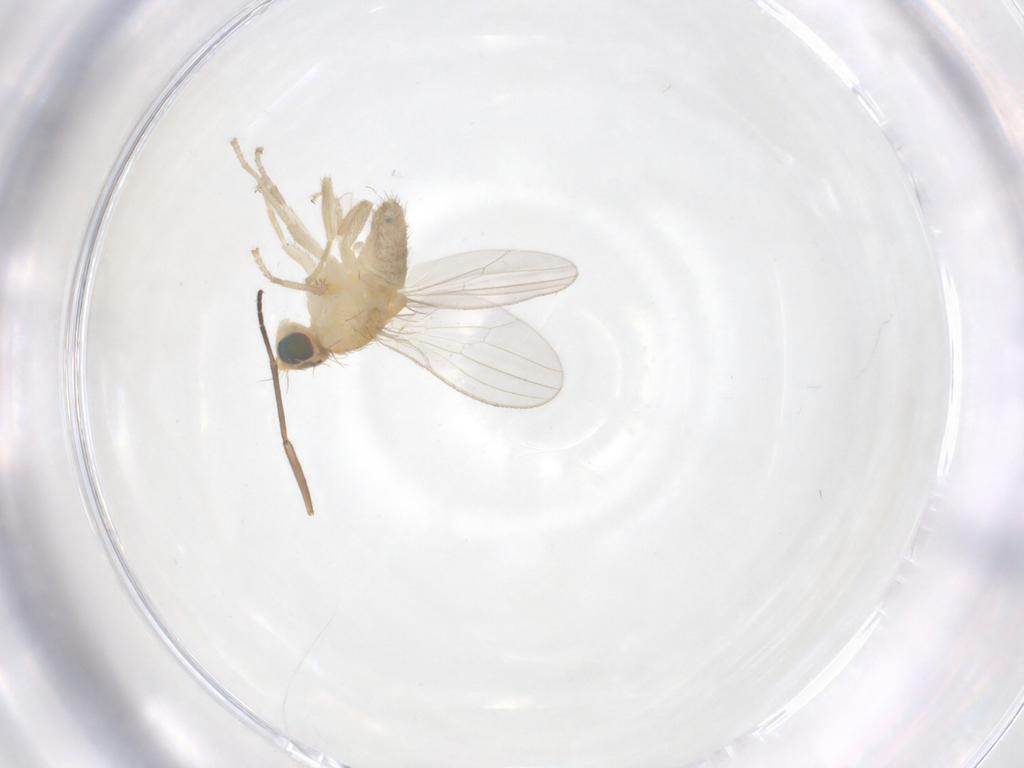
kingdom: Animalia
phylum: Arthropoda
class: Insecta
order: Diptera
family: Chyromyidae
